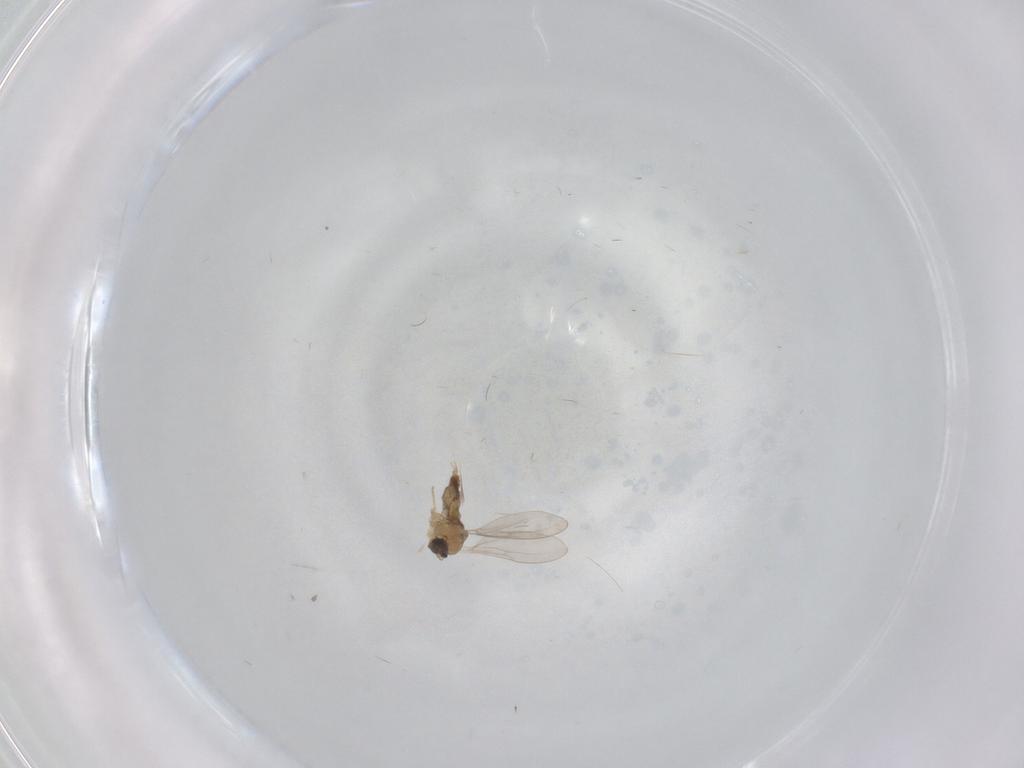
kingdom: Animalia
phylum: Arthropoda
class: Insecta
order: Diptera
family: Cecidomyiidae
